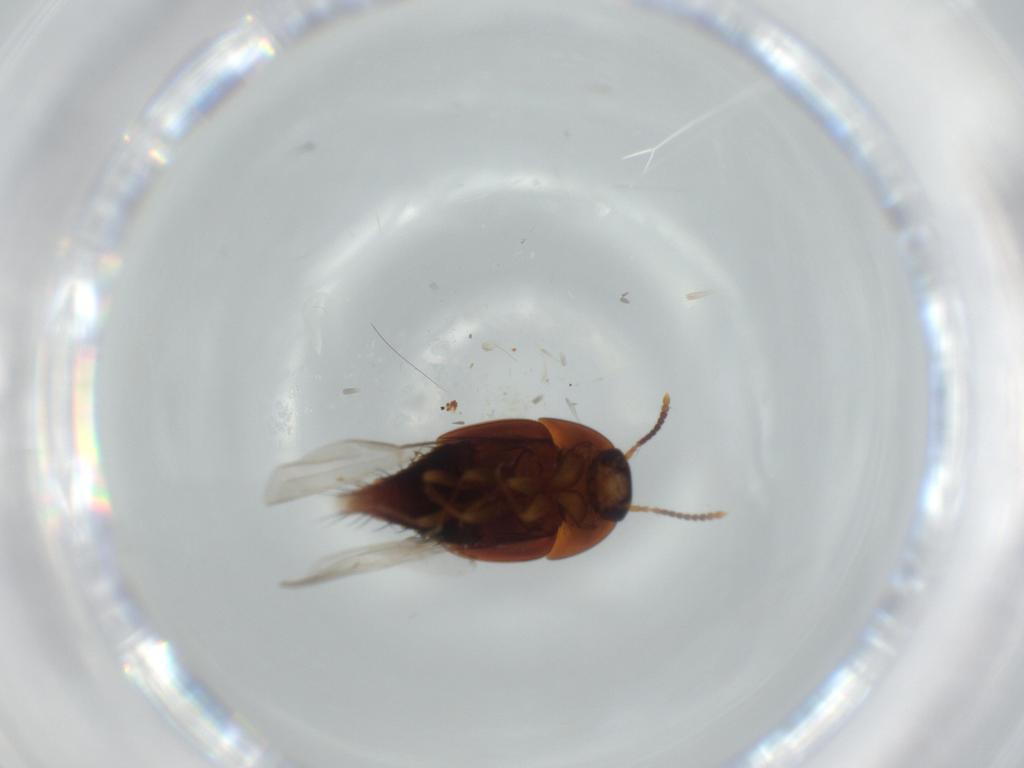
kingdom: Animalia
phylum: Arthropoda
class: Insecta
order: Coleoptera
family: Staphylinidae
